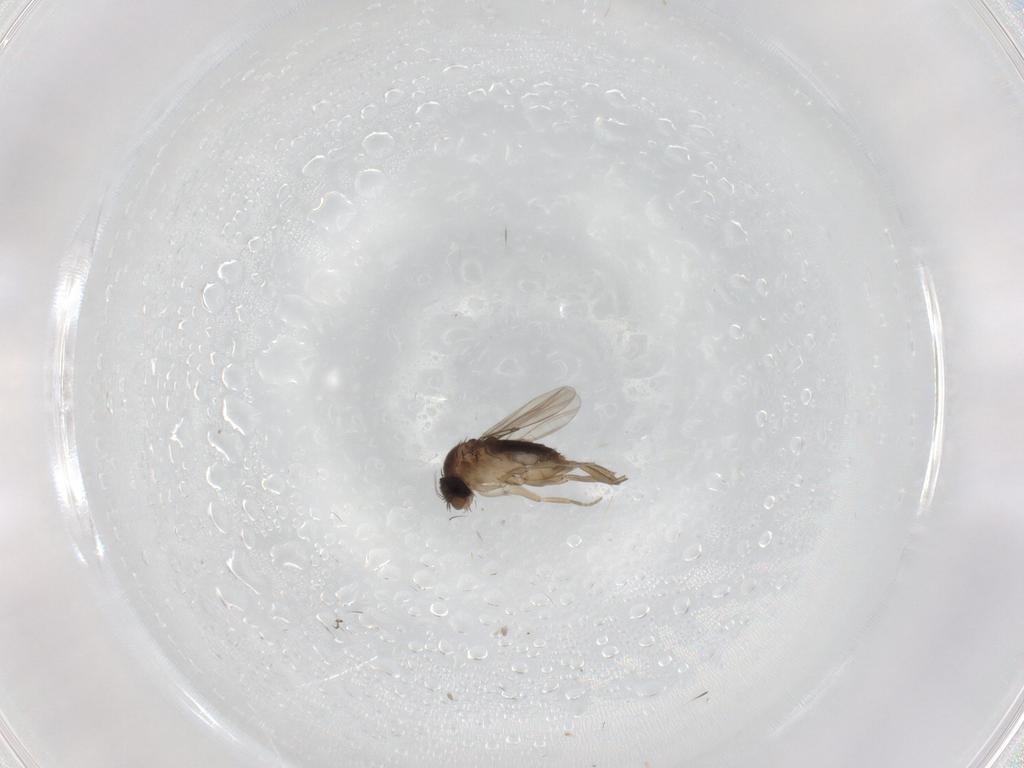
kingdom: Animalia
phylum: Arthropoda
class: Insecta
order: Diptera
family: Phoridae
